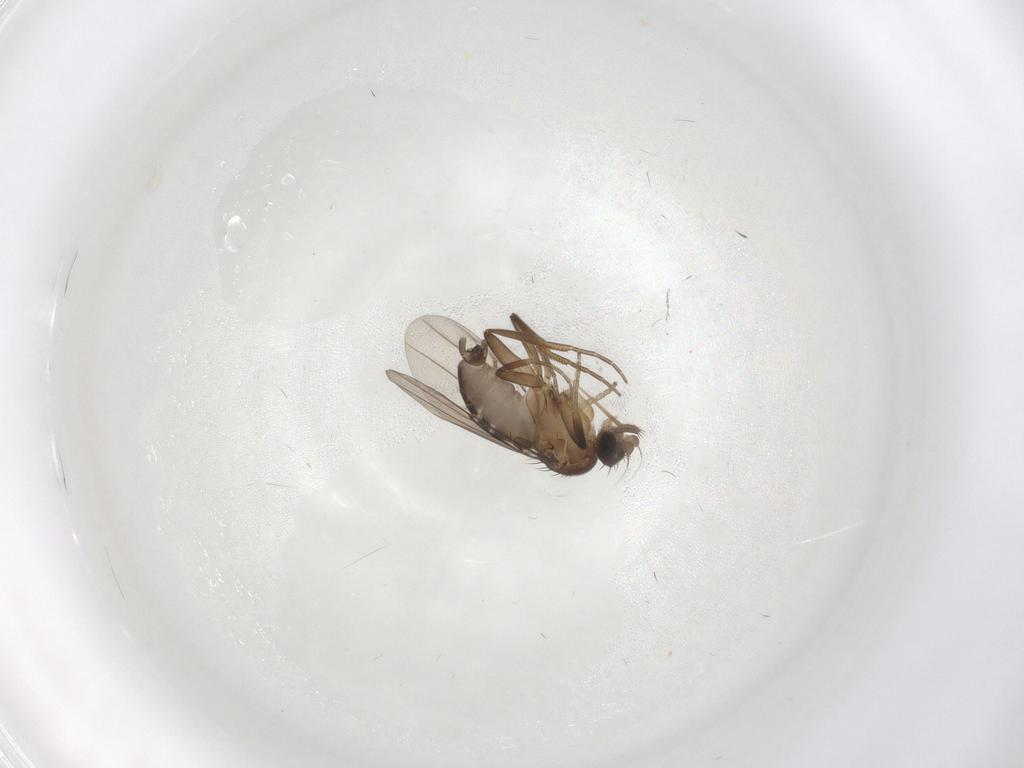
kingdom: Animalia
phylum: Arthropoda
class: Insecta
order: Diptera
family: Phoridae
